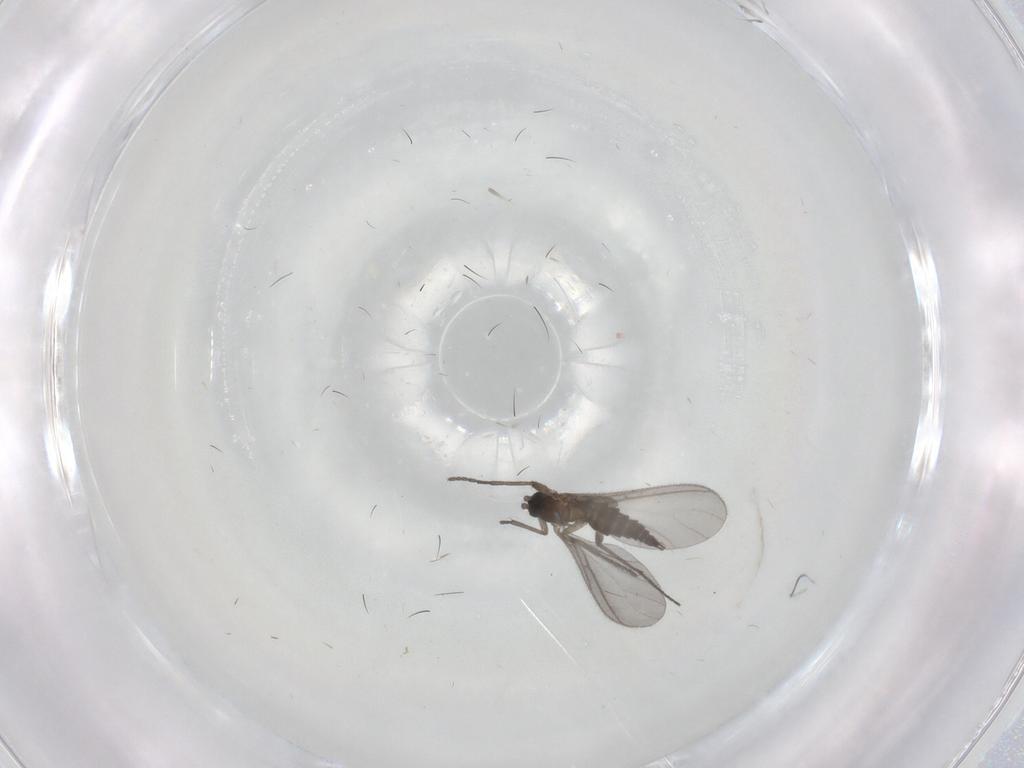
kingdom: Animalia
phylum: Arthropoda
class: Insecta
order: Diptera
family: Sciaridae
